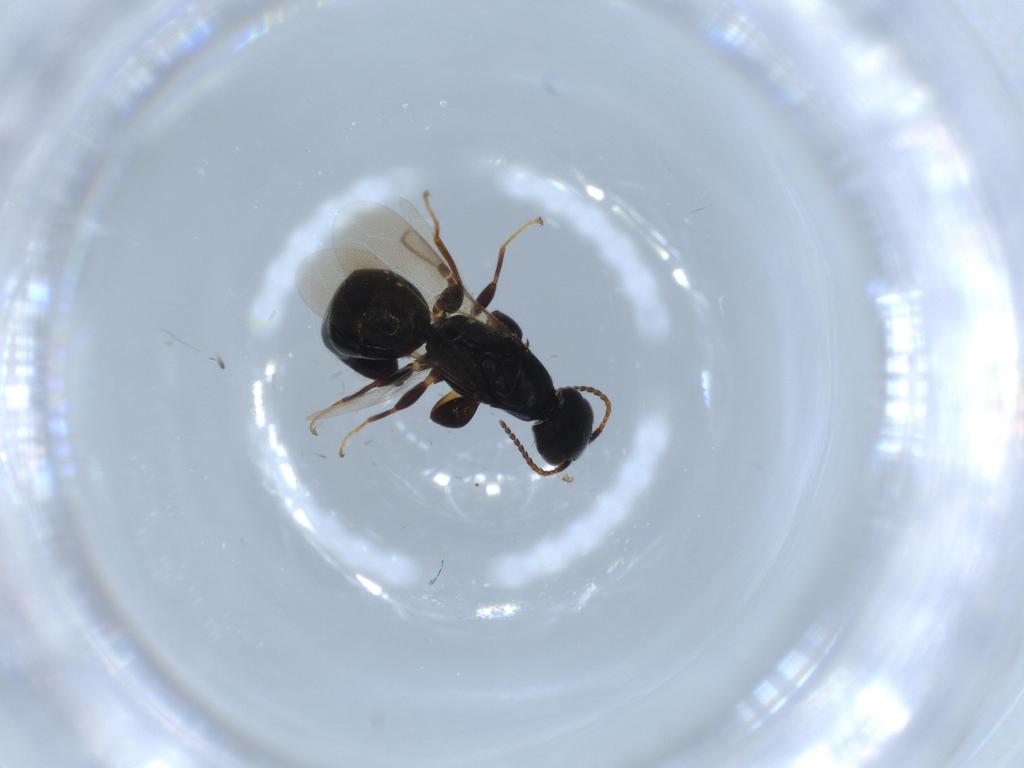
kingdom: Animalia
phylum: Arthropoda
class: Insecta
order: Hymenoptera
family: Bethylidae
